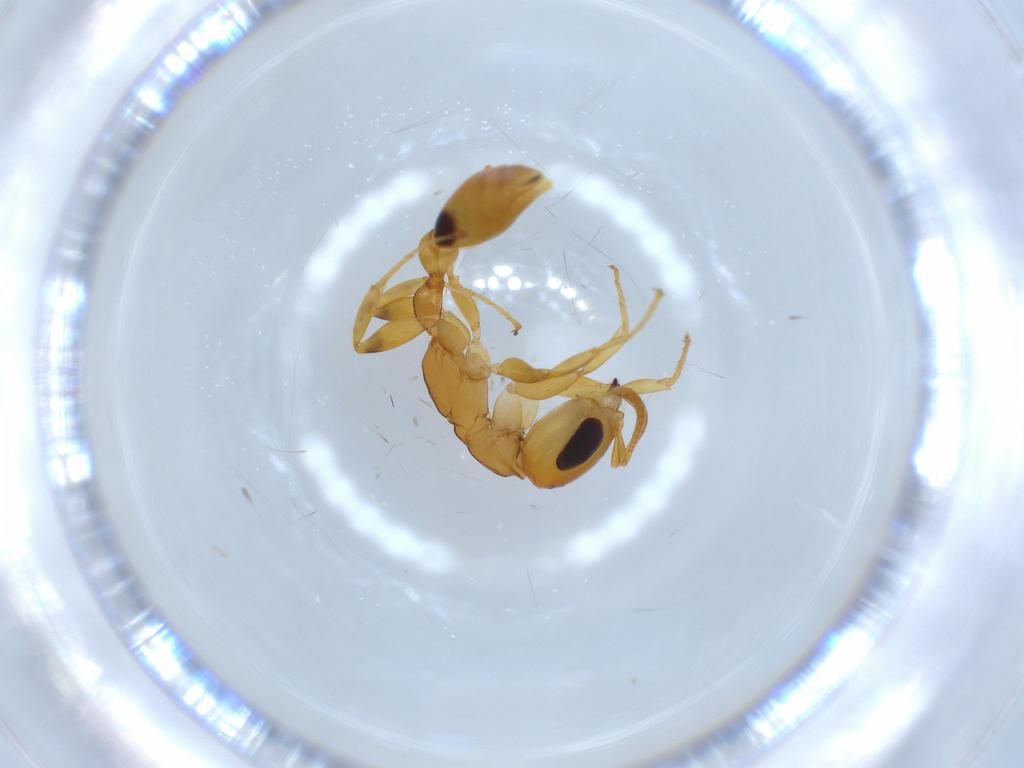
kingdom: Animalia
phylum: Arthropoda
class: Insecta
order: Hymenoptera
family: Formicidae
